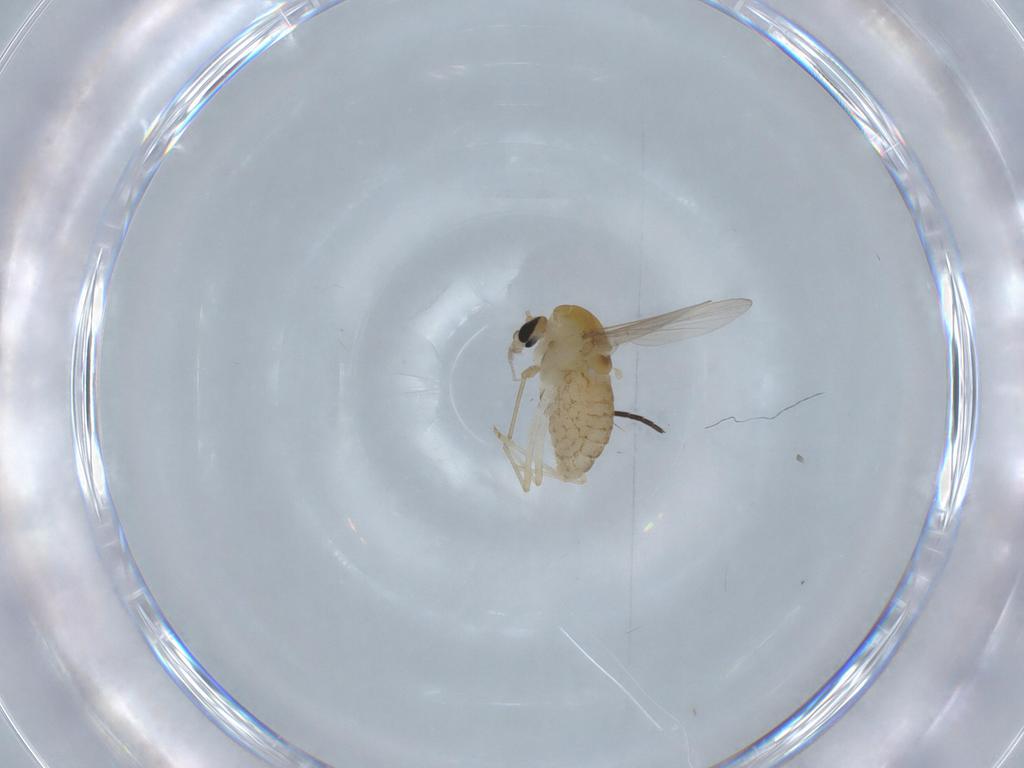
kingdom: Animalia
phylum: Arthropoda
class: Insecta
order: Diptera
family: Chironomidae
